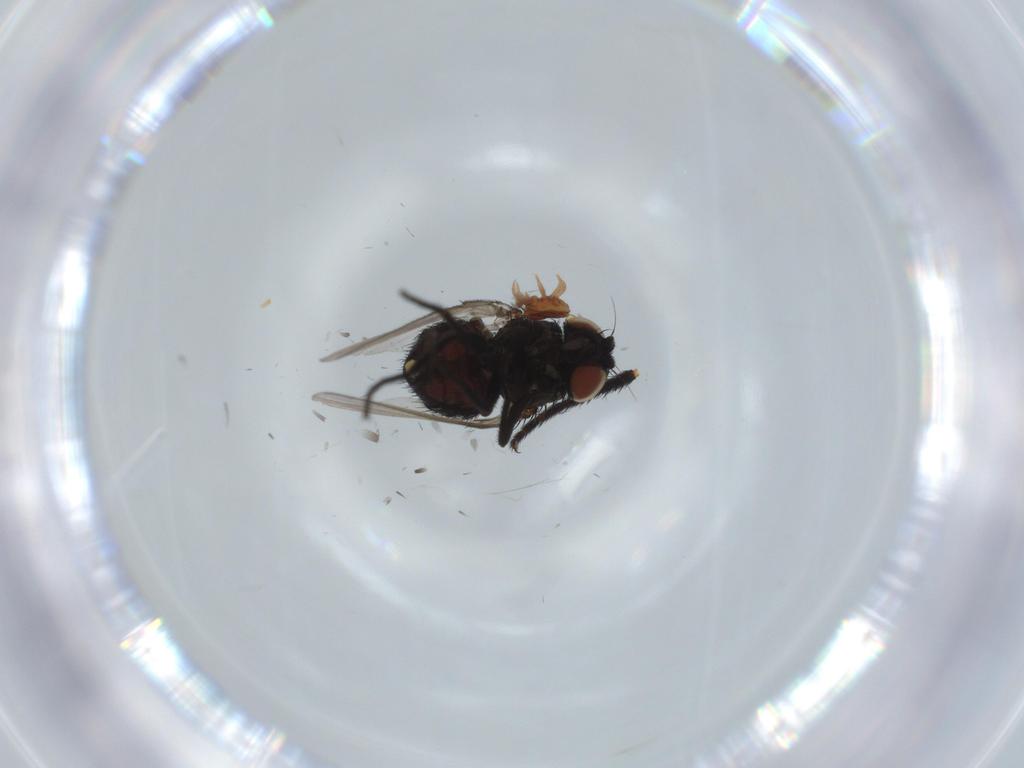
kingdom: Animalia
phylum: Arthropoda
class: Insecta
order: Diptera
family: Milichiidae
